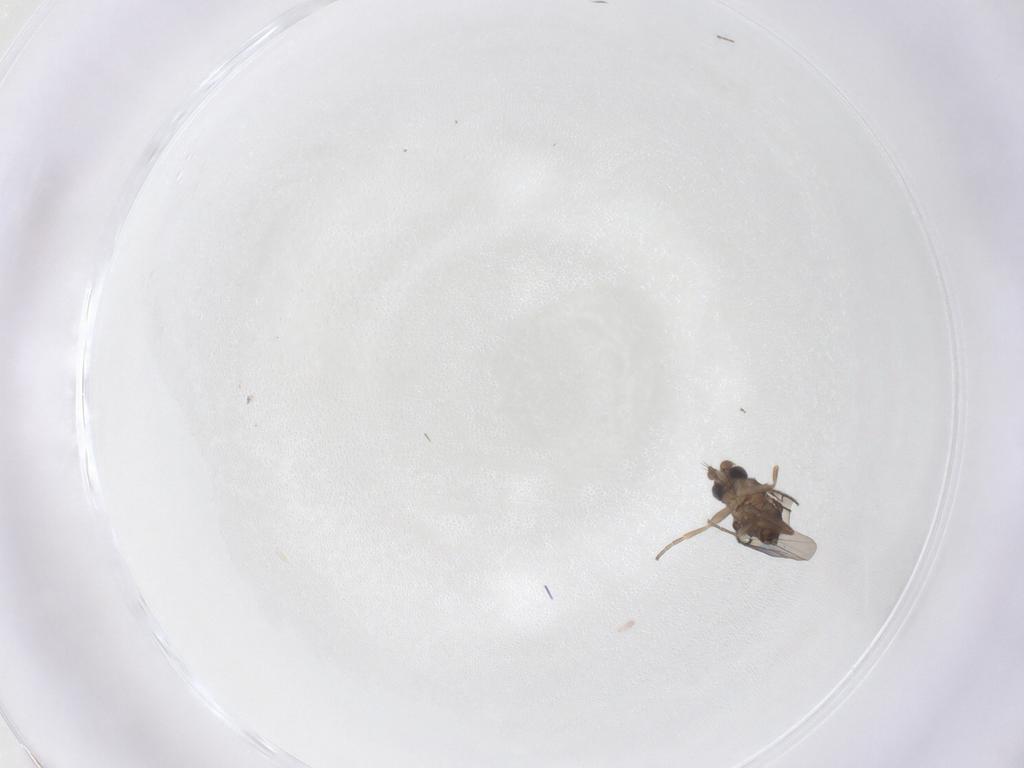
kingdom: Animalia
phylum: Arthropoda
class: Insecta
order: Diptera
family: Phoridae
